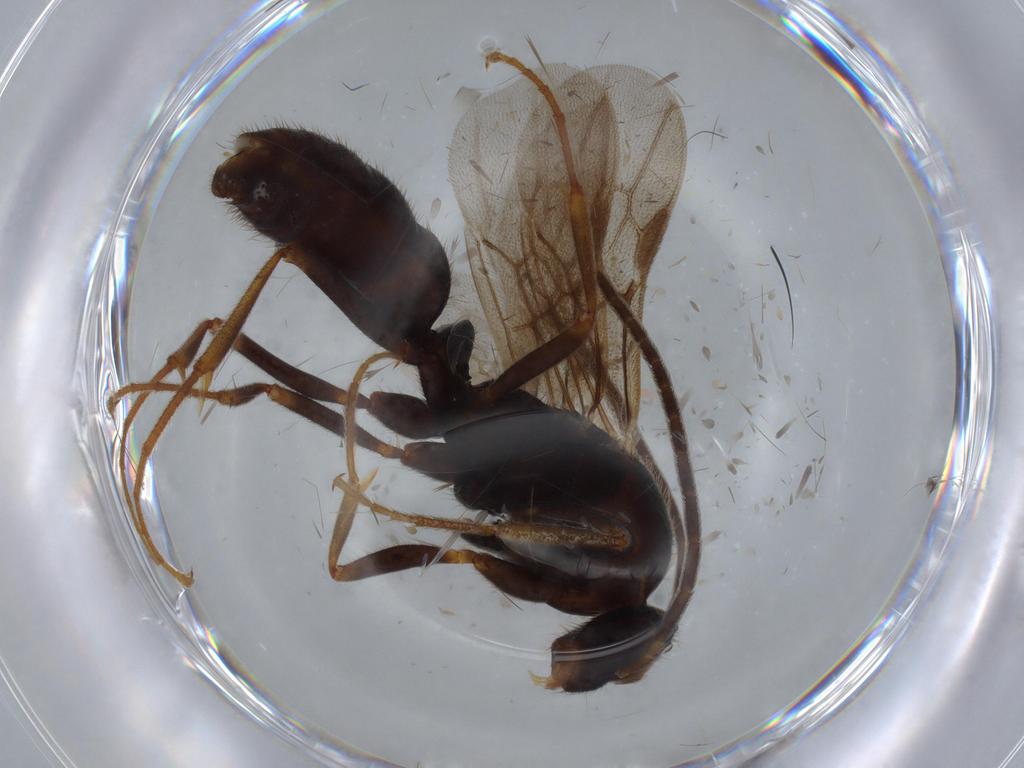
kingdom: Animalia
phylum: Arthropoda
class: Insecta
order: Hymenoptera
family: Formicidae
